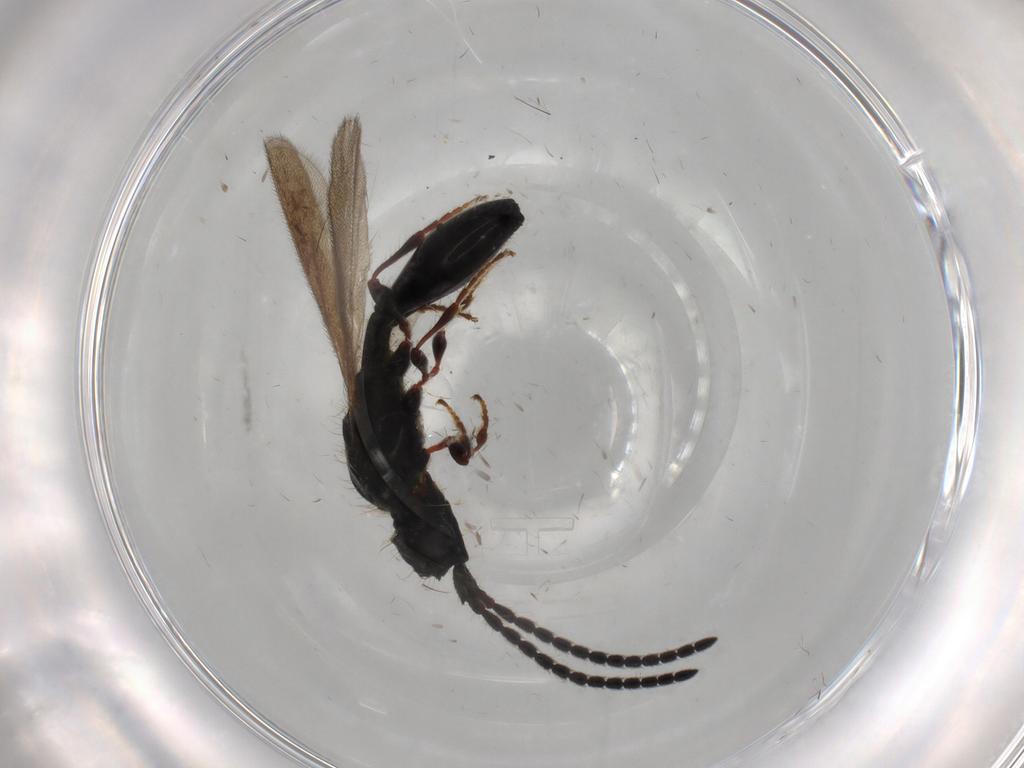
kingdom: Animalia
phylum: Arthropoda
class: Insecta
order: Hymenoptera
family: Diapriidae
